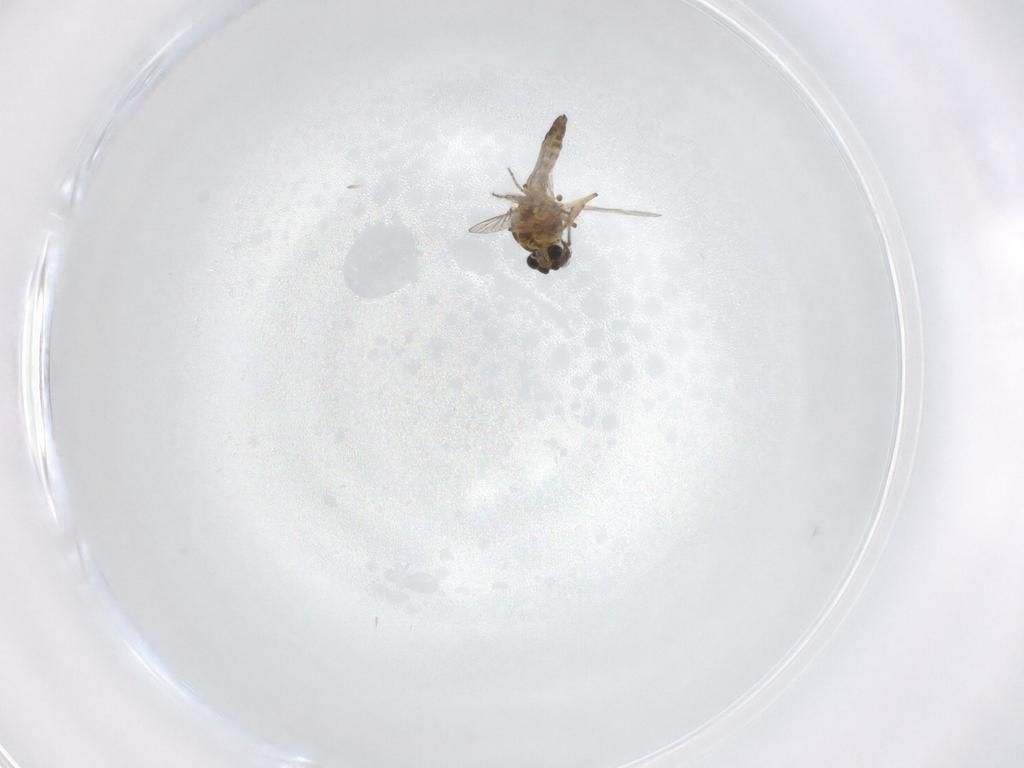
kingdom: Animalia
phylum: Arthropoda
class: Insecta
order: Diptera
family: Ceratopogonidae
